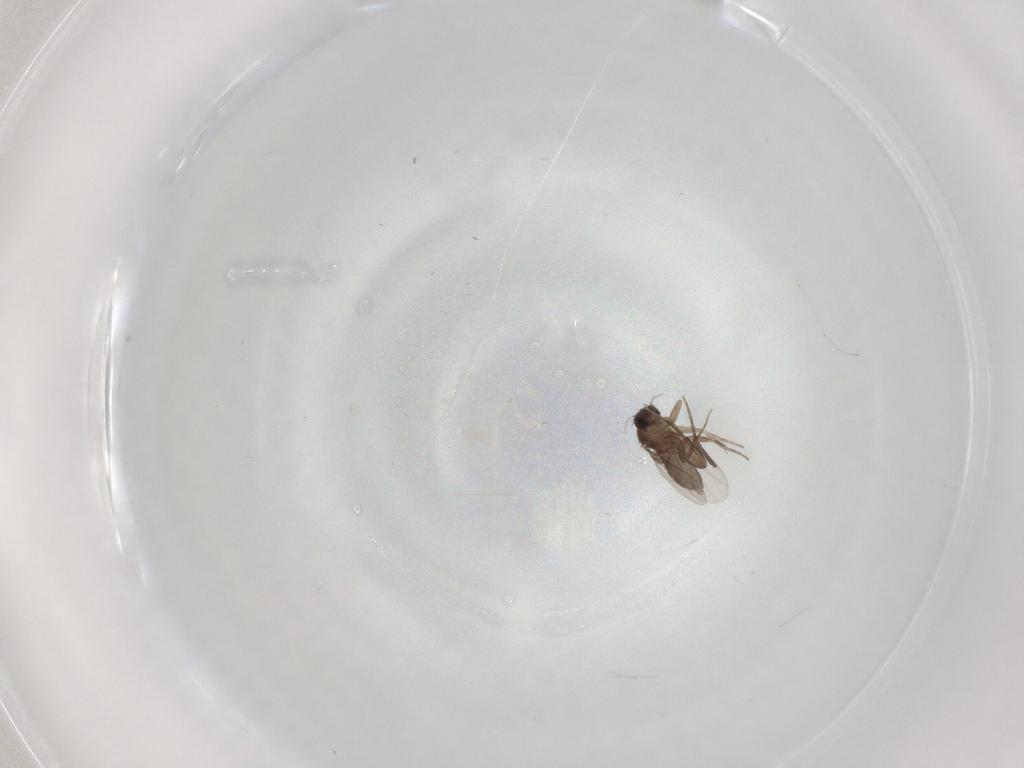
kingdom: Animalia
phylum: Arthropoda
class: Insecta
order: Diptera
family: Phoridae
